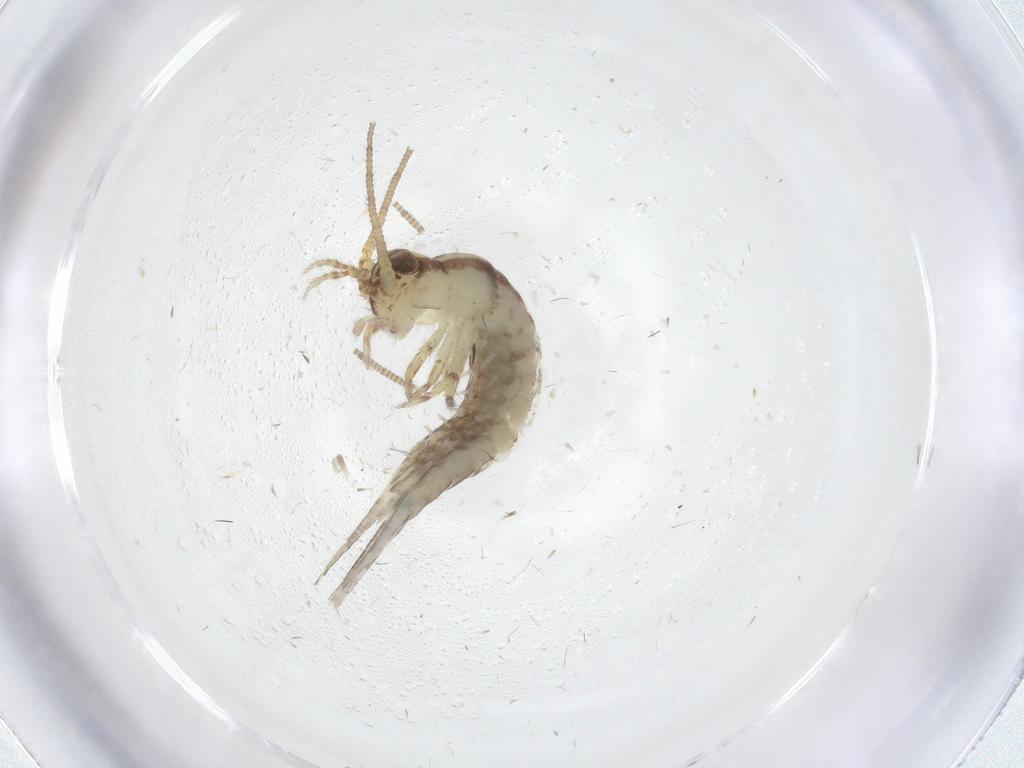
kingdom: Animalia
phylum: Arthropoda
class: Insecta
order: Archaeognatha
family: Machilidae
